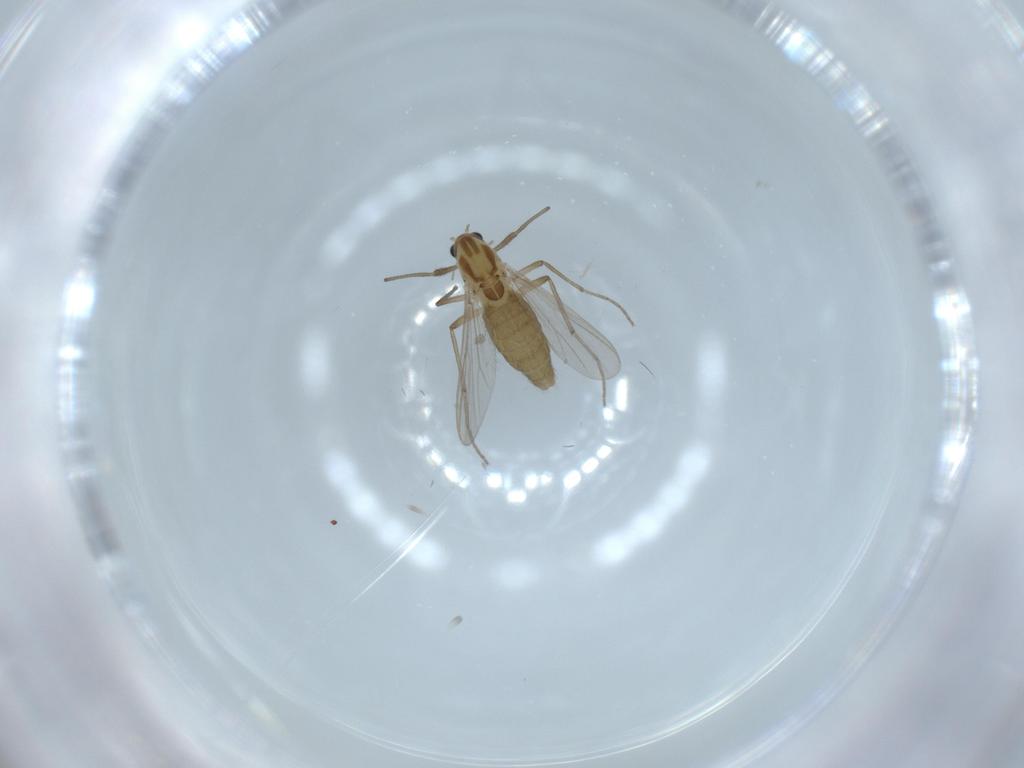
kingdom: Animalia
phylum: Arthropoda
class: Insecta
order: Diptera
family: Chironomidae
